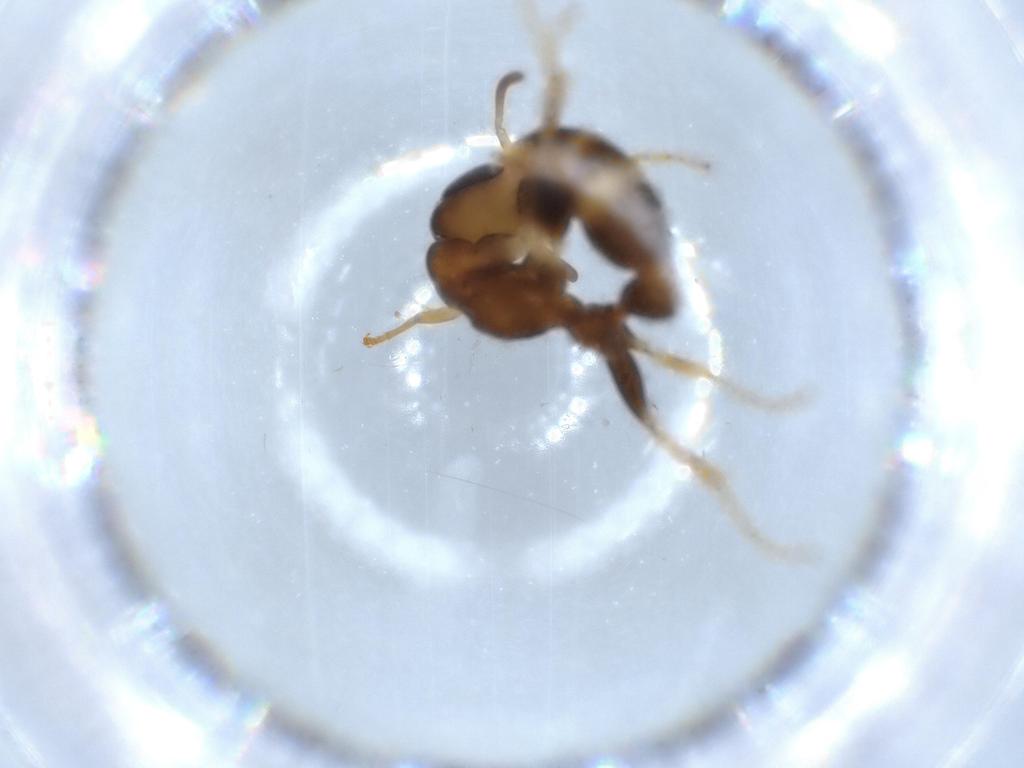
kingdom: Animalia
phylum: Arthropoda
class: Insecta
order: Hymenoptera
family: Formicidae
